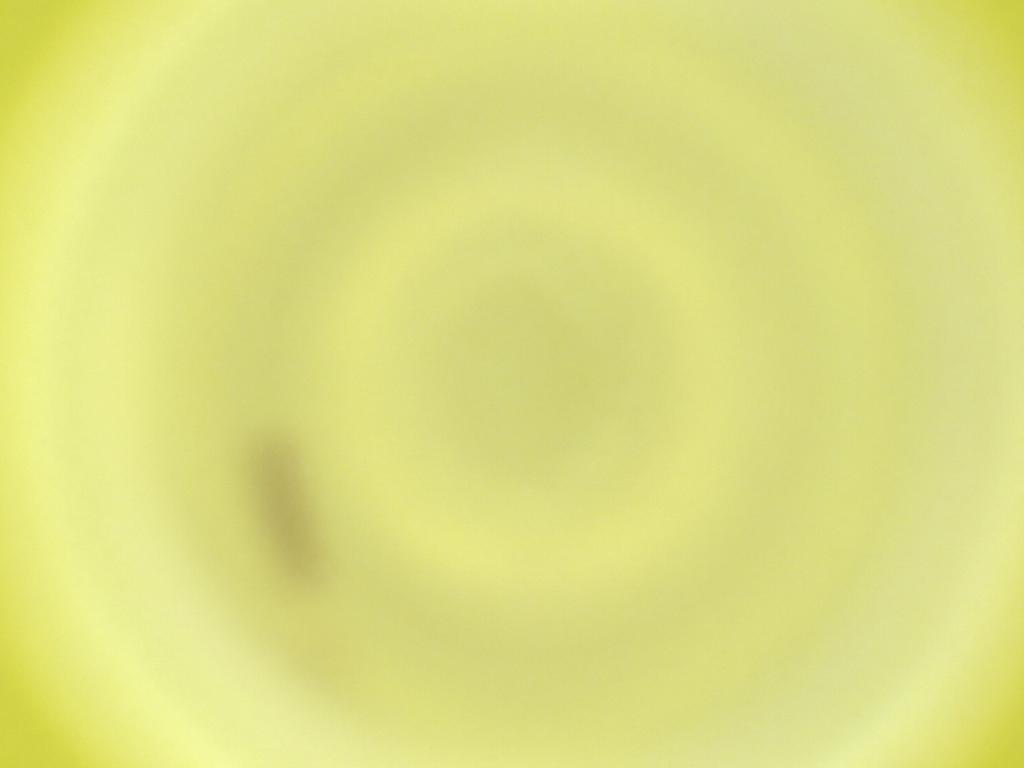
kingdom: Animalia
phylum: Arthropoda
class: Insecta
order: Diptera
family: Cecidomyiidae
